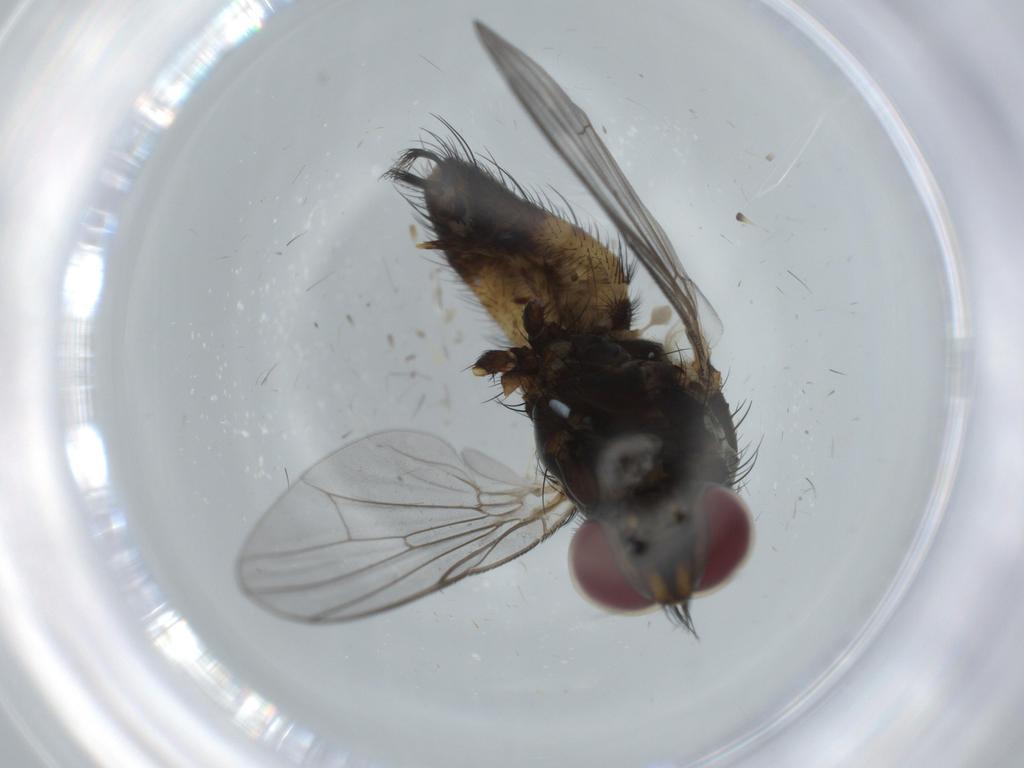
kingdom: Animalia
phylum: Arthropoda
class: Insecta
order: Diptera
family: Fannia
